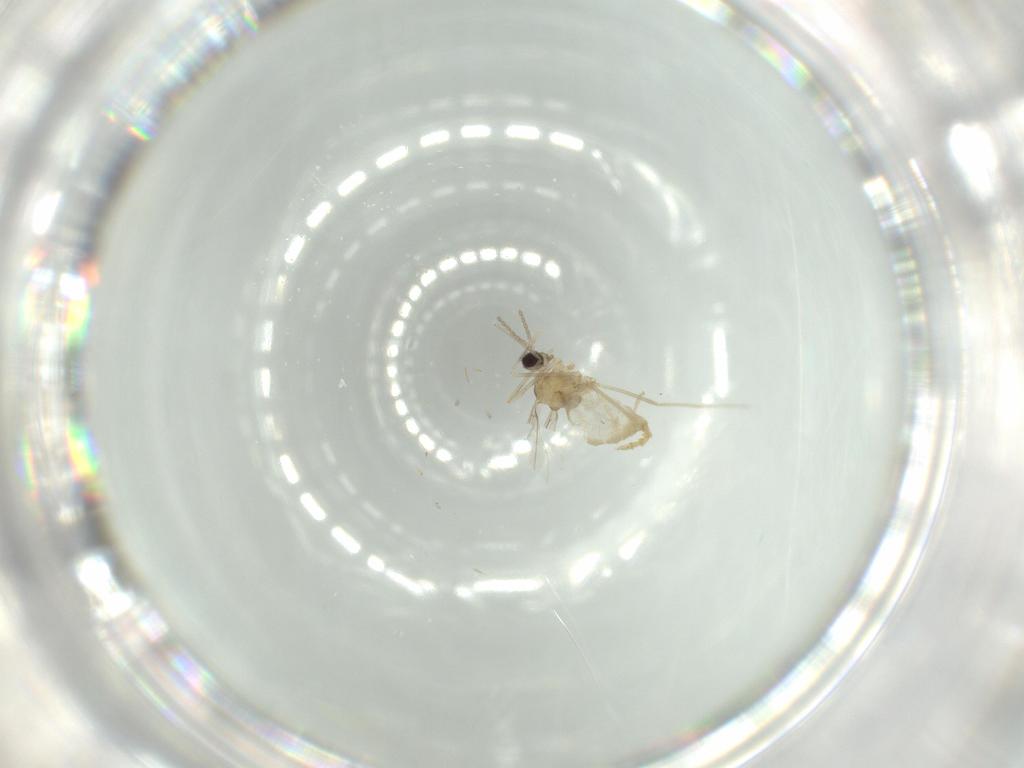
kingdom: Animalia
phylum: Arthropoda
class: Insecta
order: Diptera
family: Cecidomyiidae
